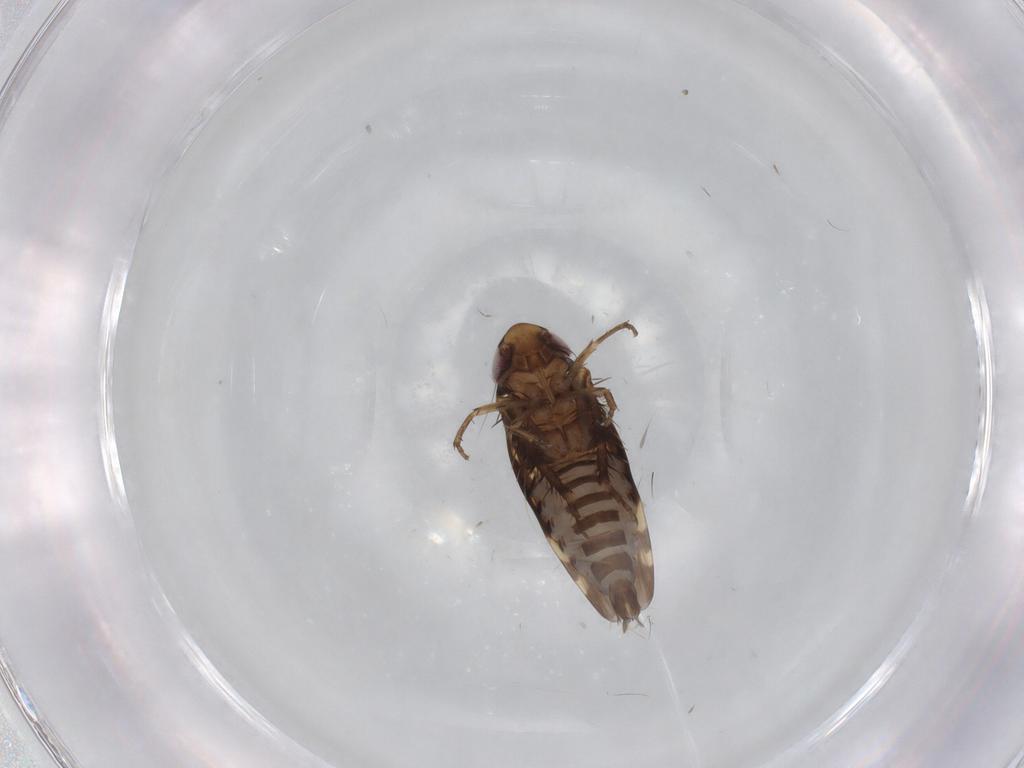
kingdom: Animalia
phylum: Arthropoda
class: Insecta
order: Hemiptera
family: Cicadellidae
